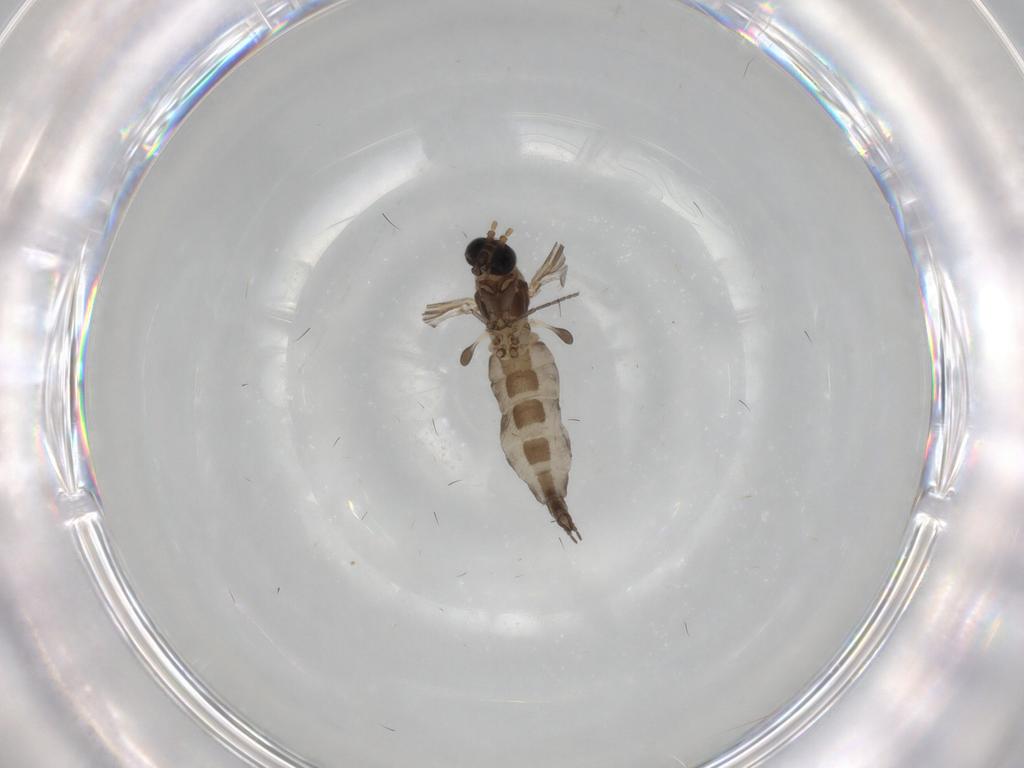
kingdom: Animalia
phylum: Arthropoda
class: Insecta
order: Diptera
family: Sciaridae
